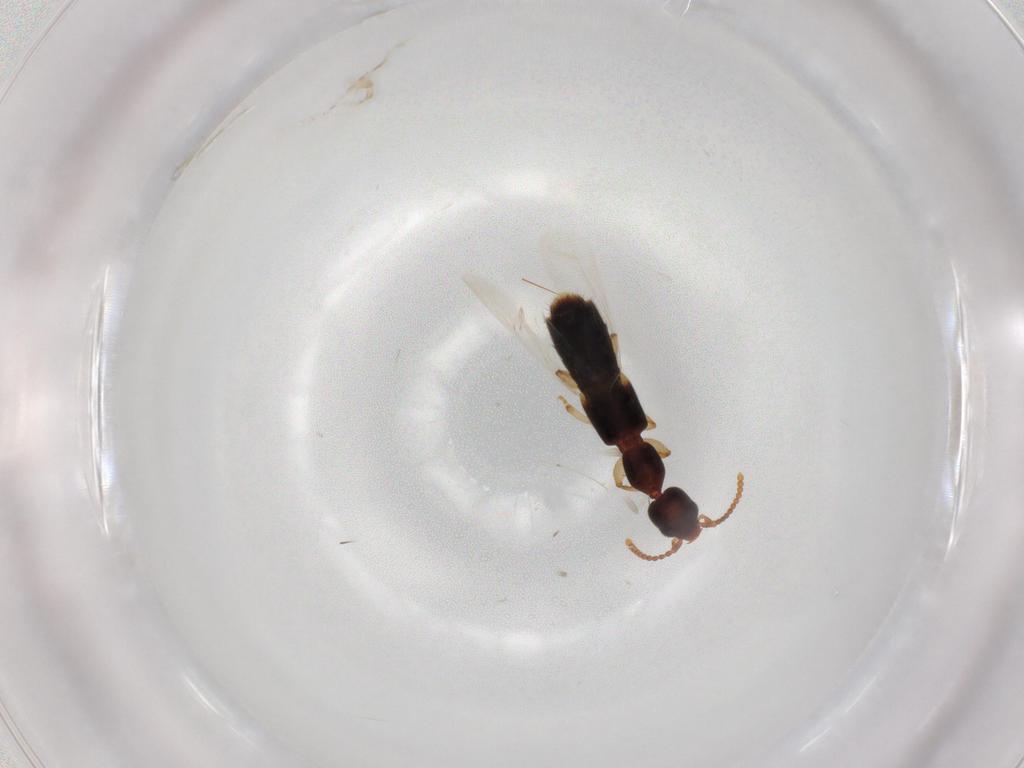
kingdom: Animalia
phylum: Arthropoda
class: Insecta
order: Coleoptera
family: Staphylinidae
